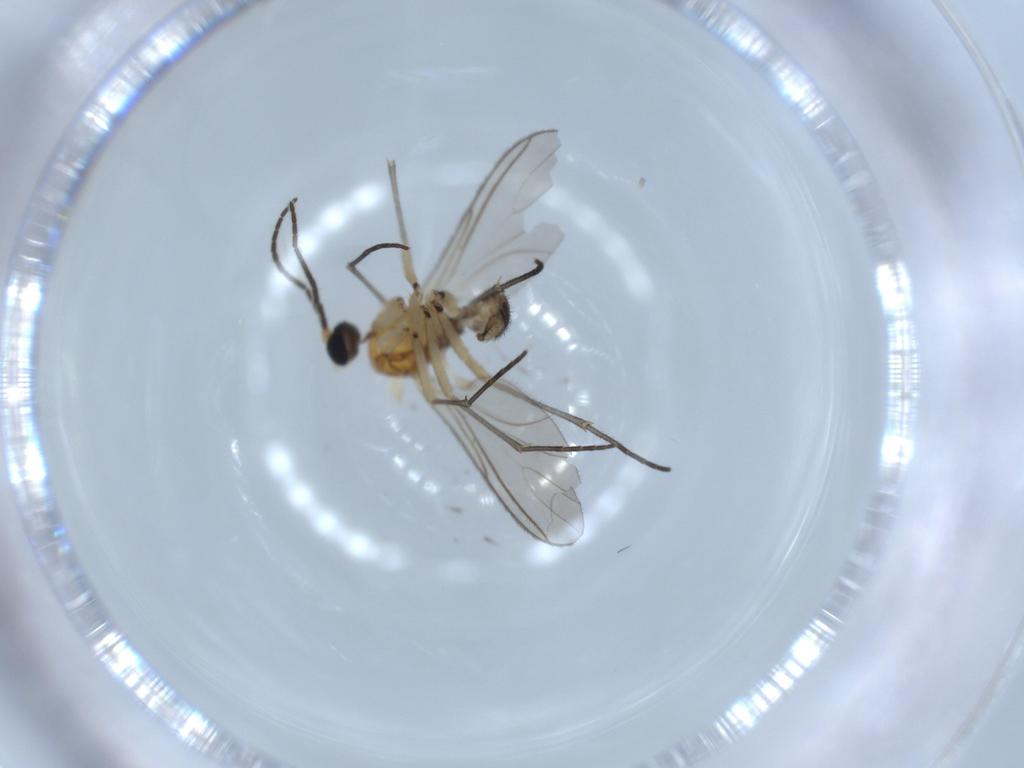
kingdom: Animalia
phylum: Arthropoda
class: Insecta
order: Diptera
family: Sciaridae
